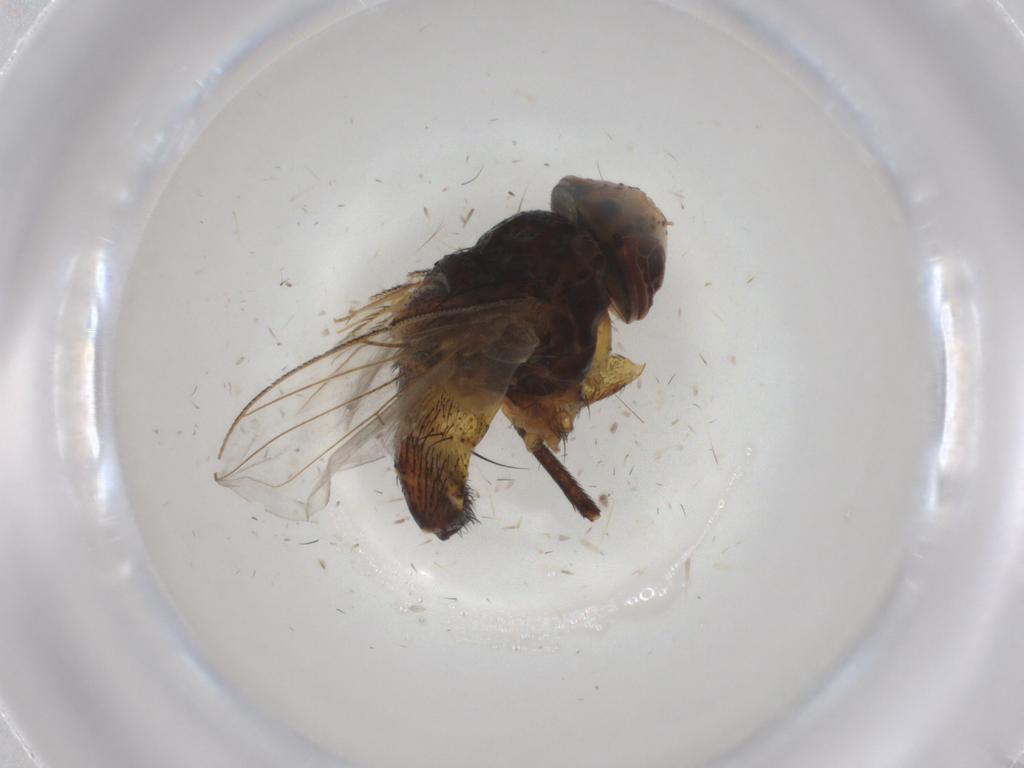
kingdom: Animalia
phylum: Arthropoda
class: Insecta
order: Diptera
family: Glossinidae
